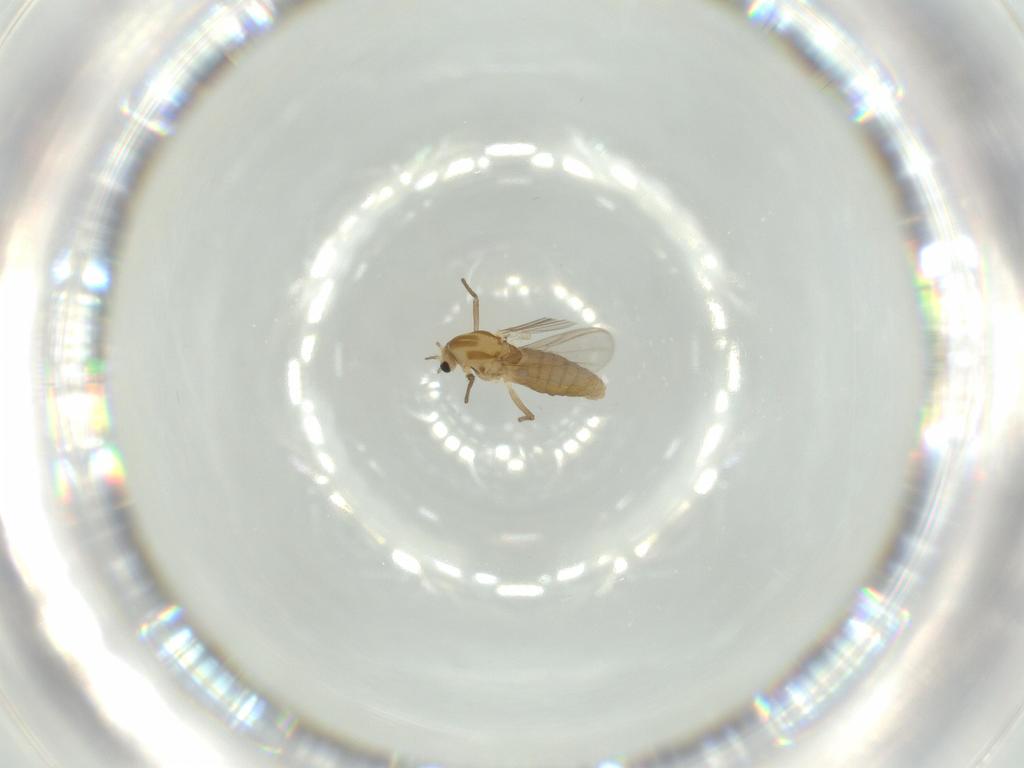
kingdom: Animalia
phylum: Arthropoda
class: Insecta
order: Diptera
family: Chironomidae
